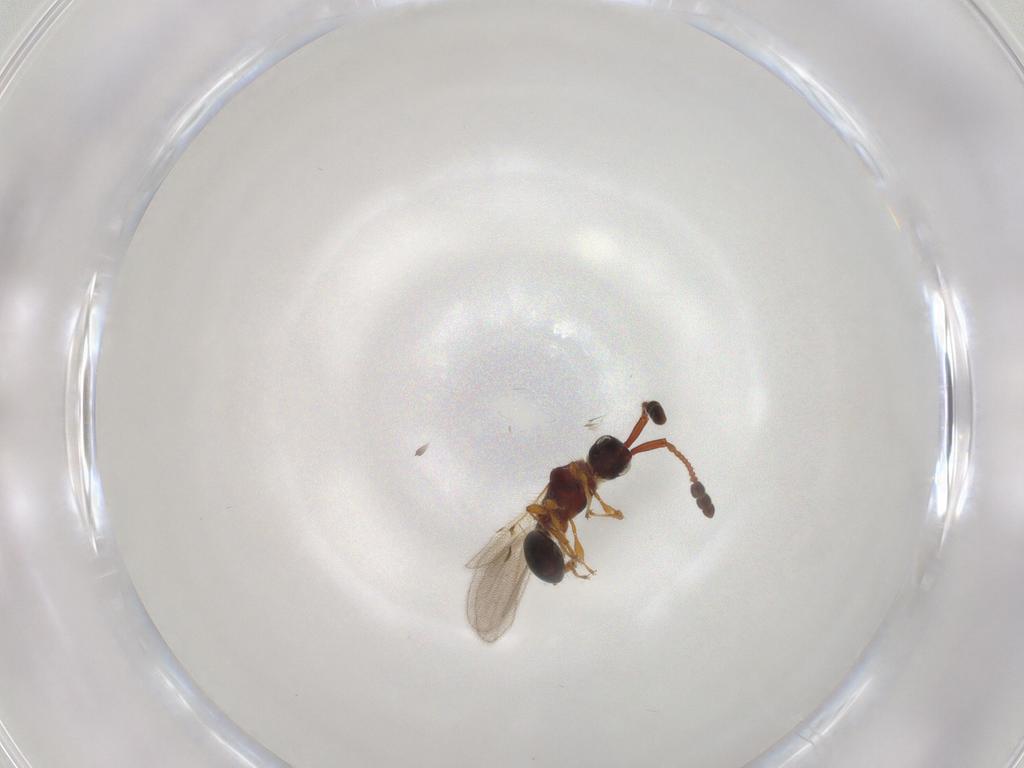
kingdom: Animalia
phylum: Arthropoda
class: Insecta
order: Hymenoptera
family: Diapriidae
